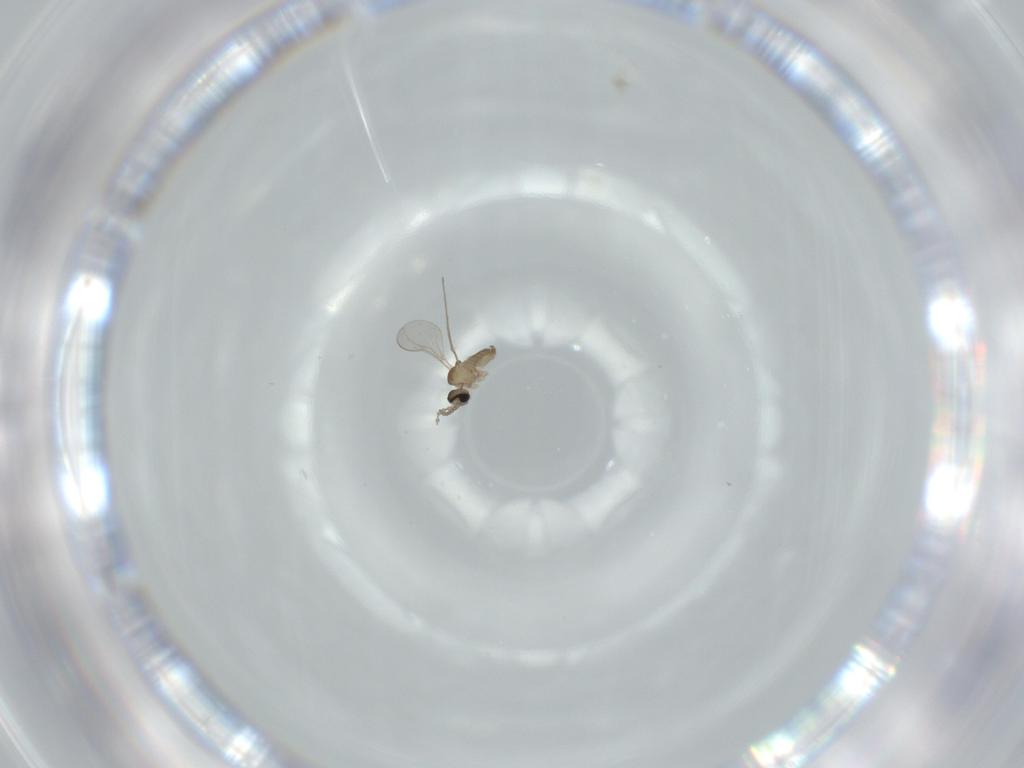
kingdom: Animalia
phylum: Arthropoda
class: Insecta
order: Diptera
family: Cecidomyiidae
